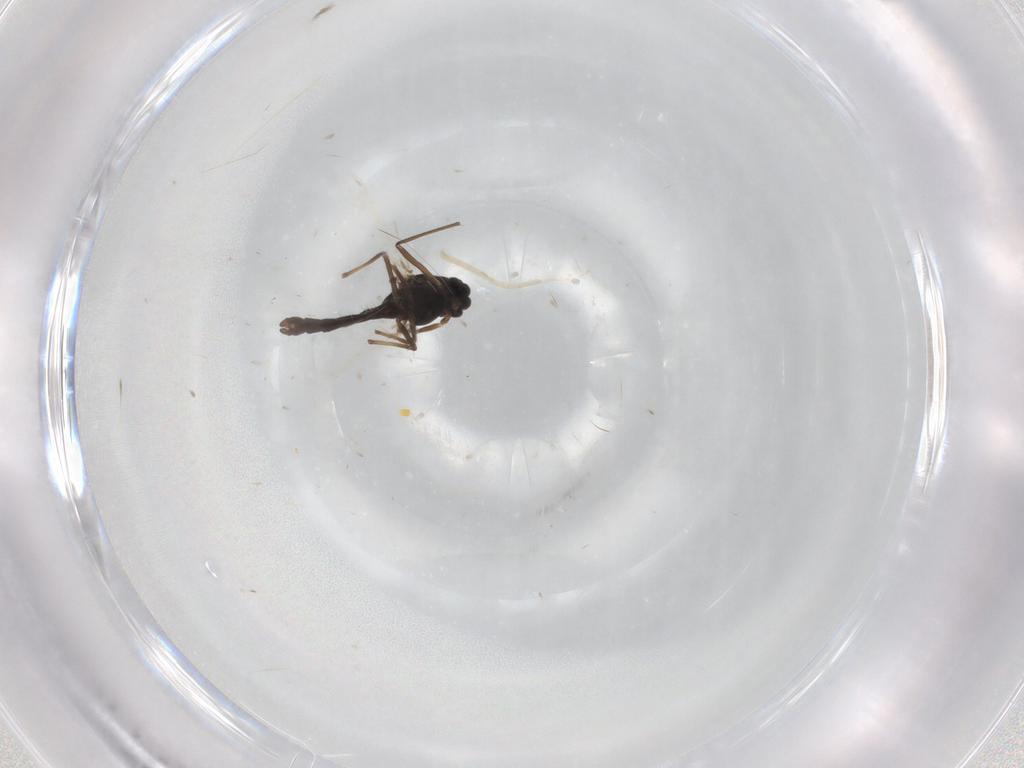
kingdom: Animalia
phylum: Arthropoda
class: Insecta
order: Diptera
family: Chironomidae
